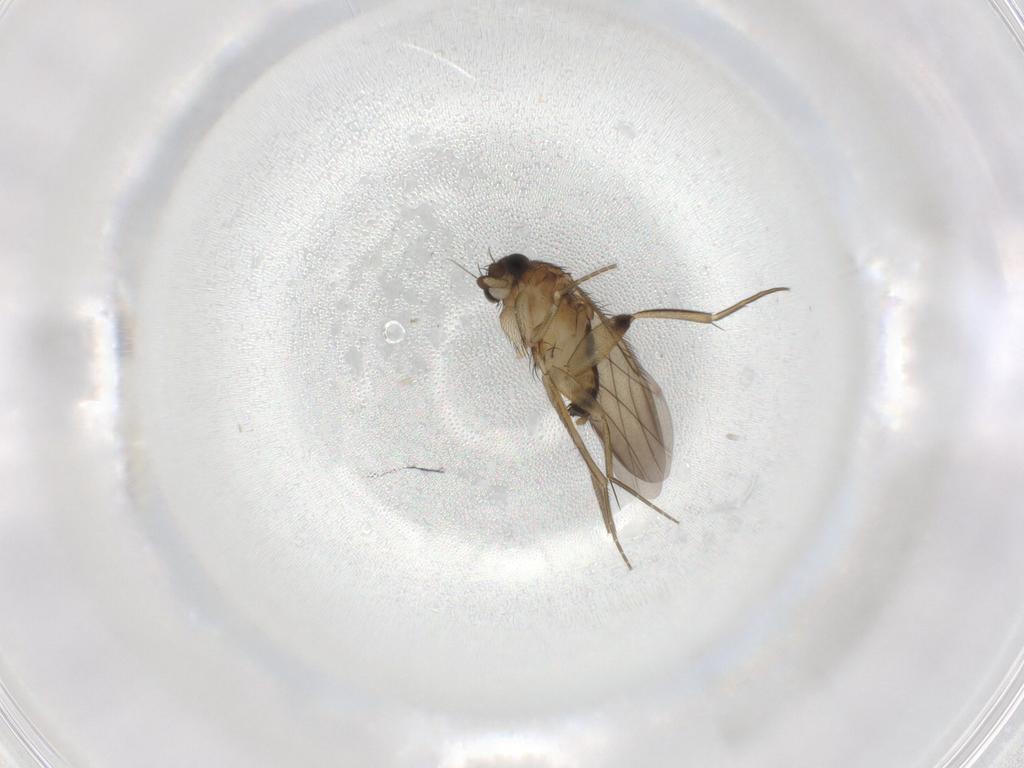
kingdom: Animalia
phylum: Arthropoda
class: Insecta
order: Diptera
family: Phoridae
